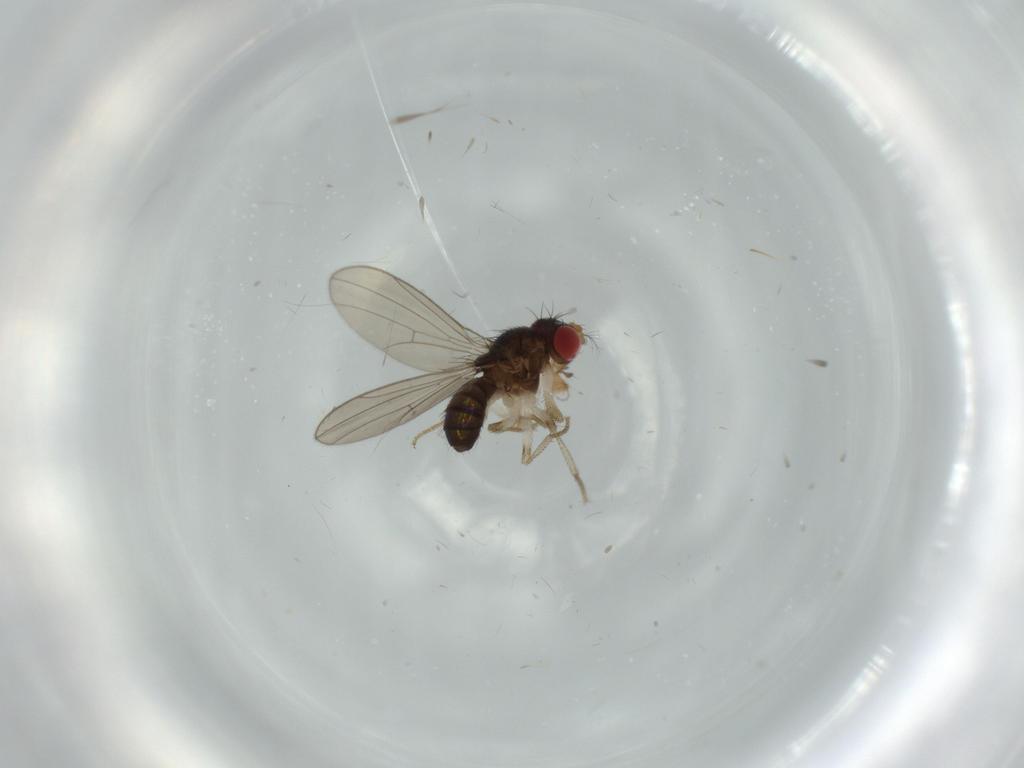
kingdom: Animalia
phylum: Arthropoda
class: Insecta
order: Diptera
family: Drosophilidae
